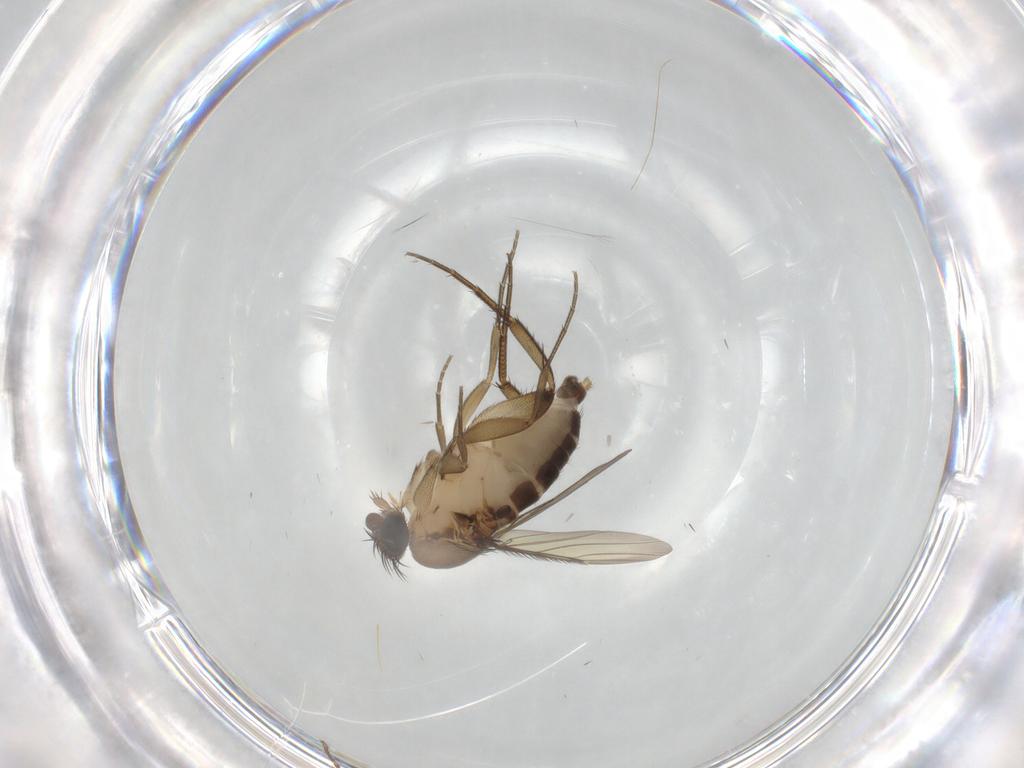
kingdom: Animalia
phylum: Arthropoda
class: Insecta
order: Diptera
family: Phoridae
